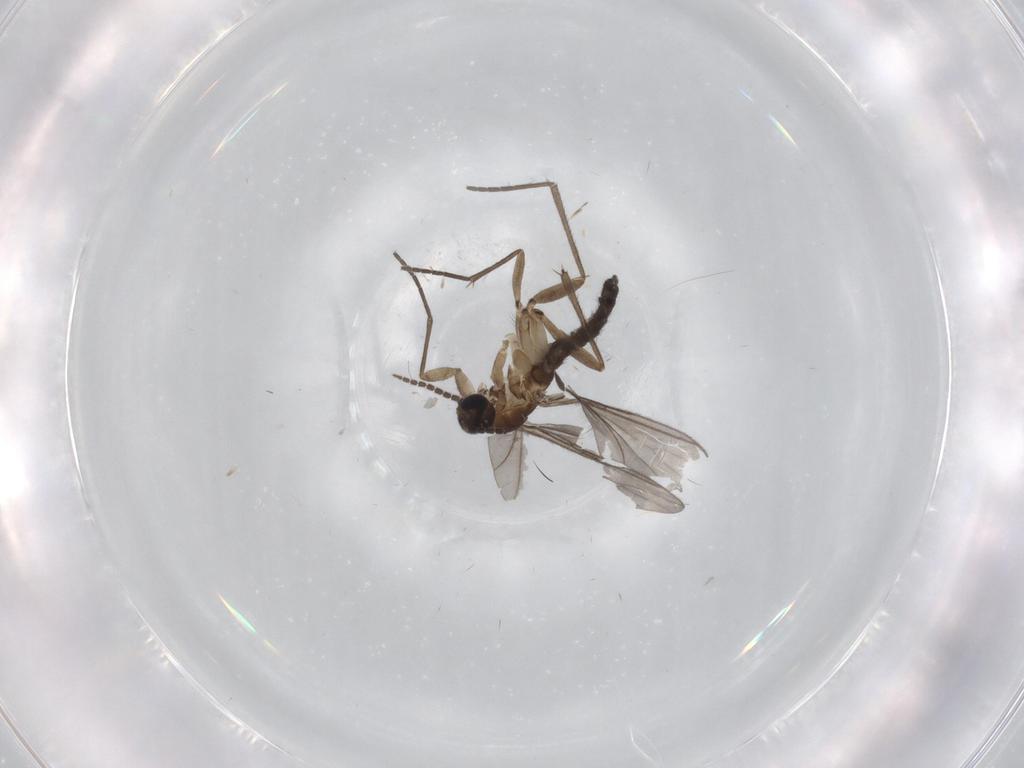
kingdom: Animalia
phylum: Arthropoda
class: Insecta
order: Diptera
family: Sciaridae
